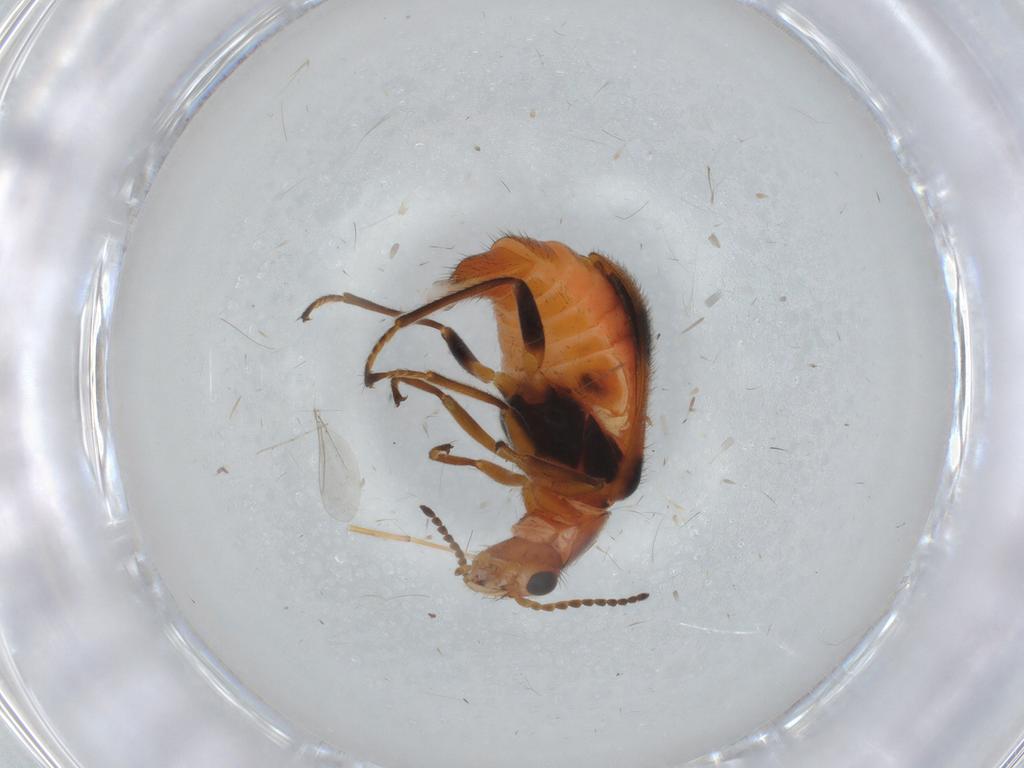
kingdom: Animalia
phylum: Arthropoda
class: Insecta
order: Coleoptera
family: Melyridae
